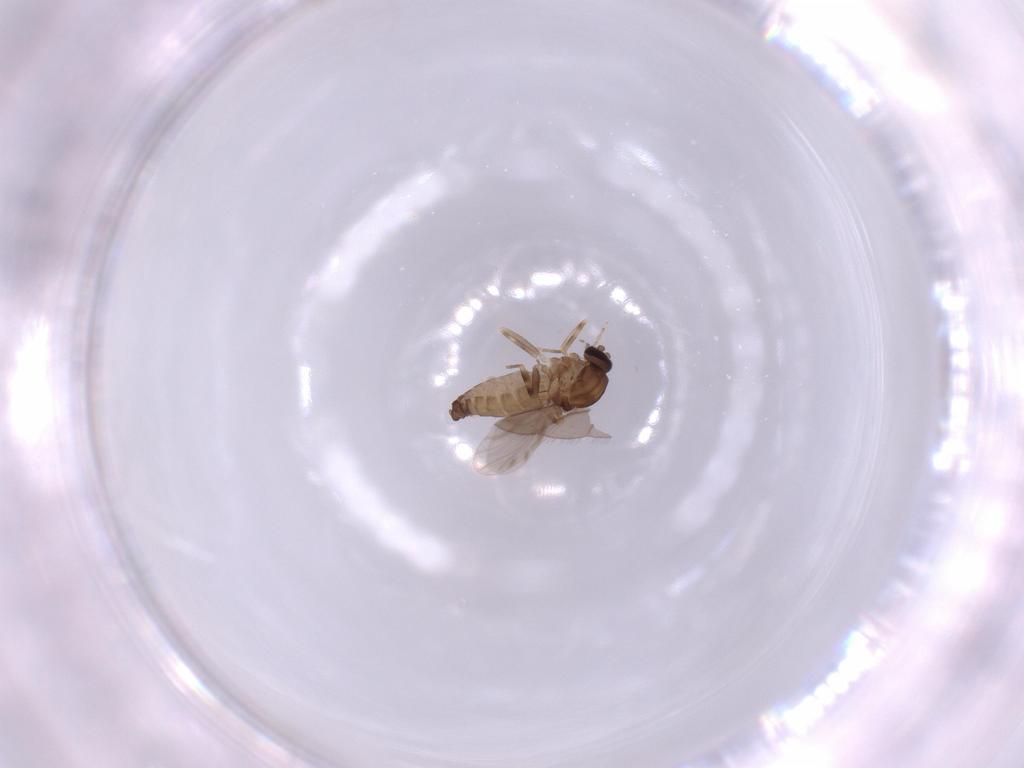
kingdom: Animalia
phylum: Arthropoda
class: Insecta
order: Diptera
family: Ceratopogonidae
